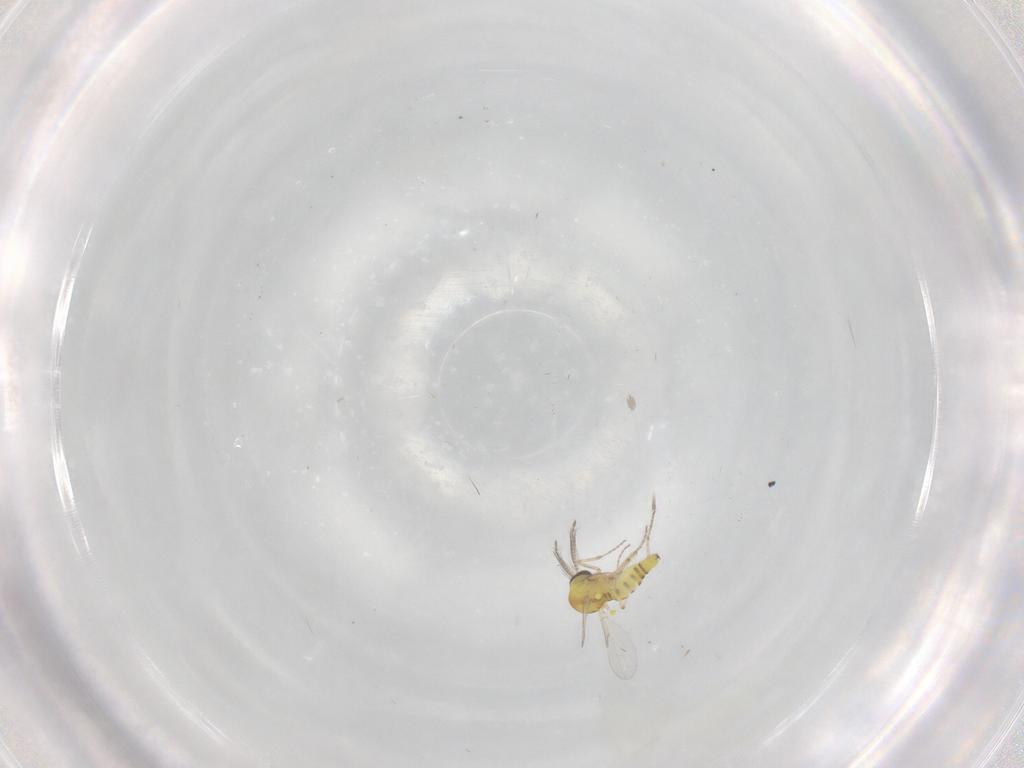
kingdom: Animalia
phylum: Arthropoda
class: Insecta
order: Diptera
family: Ceratopogonidae
